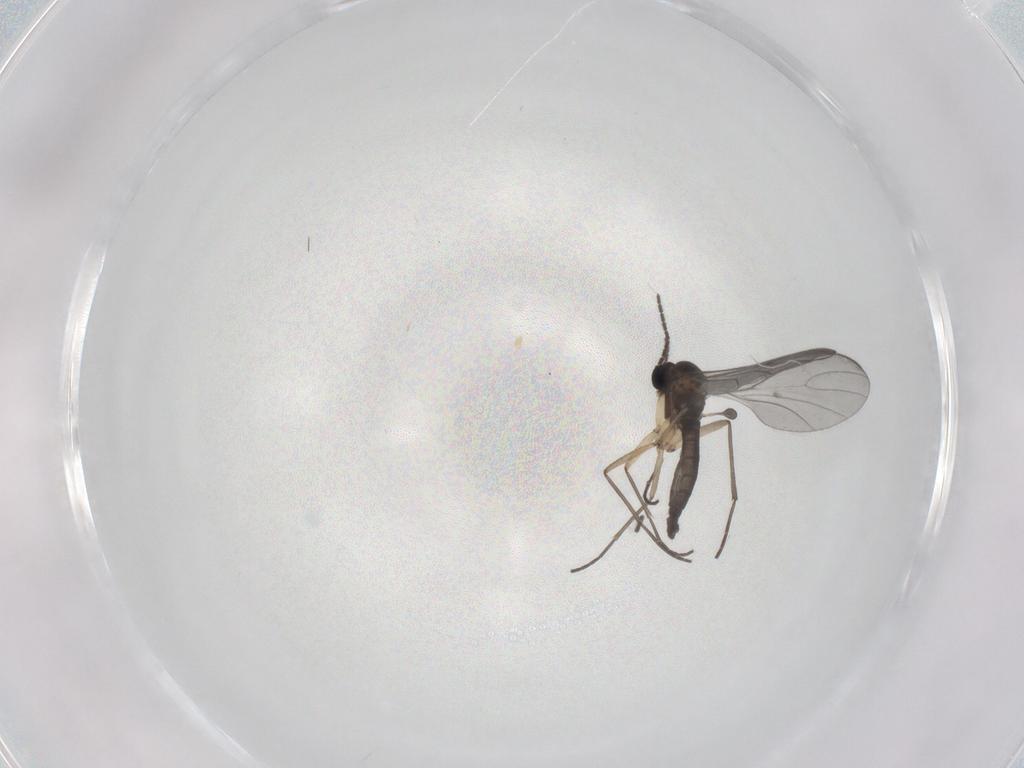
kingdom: Animalia
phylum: Arthropoda
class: Insecta
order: Diptera
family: Sciaridae
